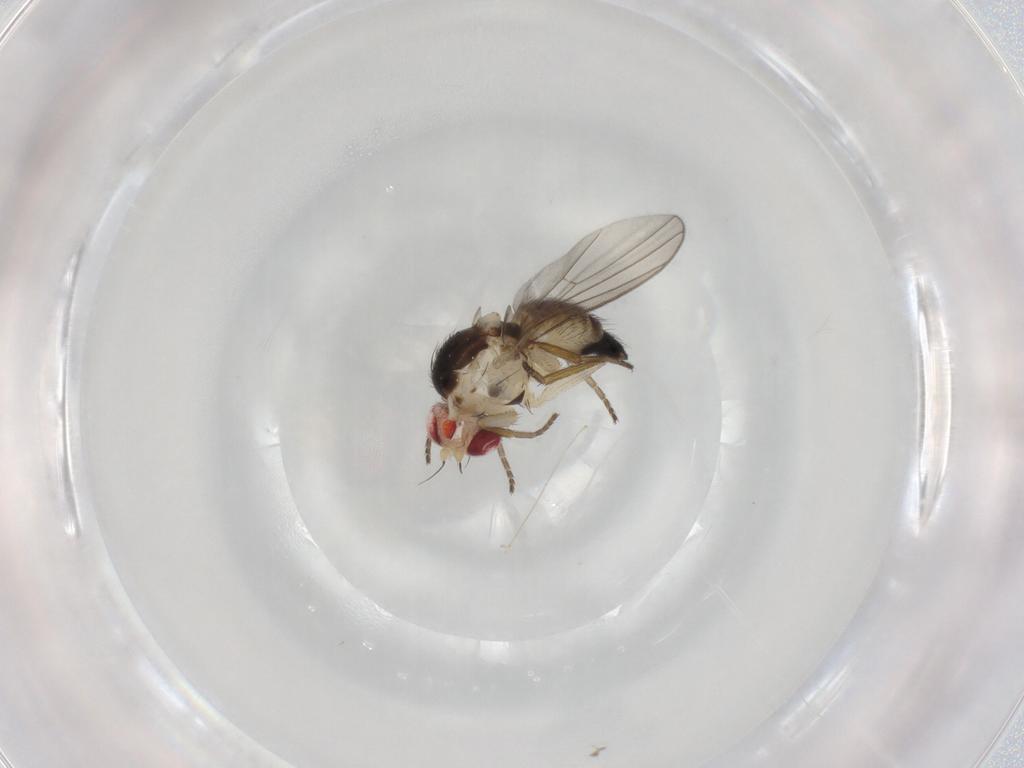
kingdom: Animalia
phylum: Arthropoda
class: Insecta
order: Diptera
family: Agromyzidae
